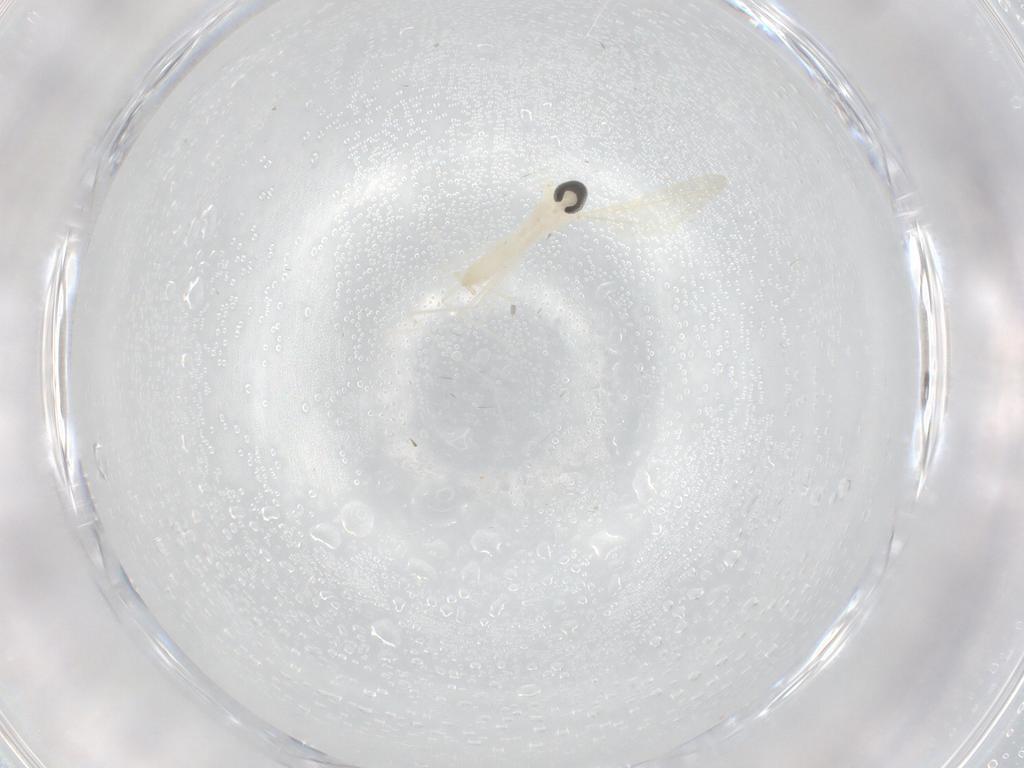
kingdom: Animalia
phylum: Arthropoda
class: Insecta
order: Diptera
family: Cecidomyiidae
